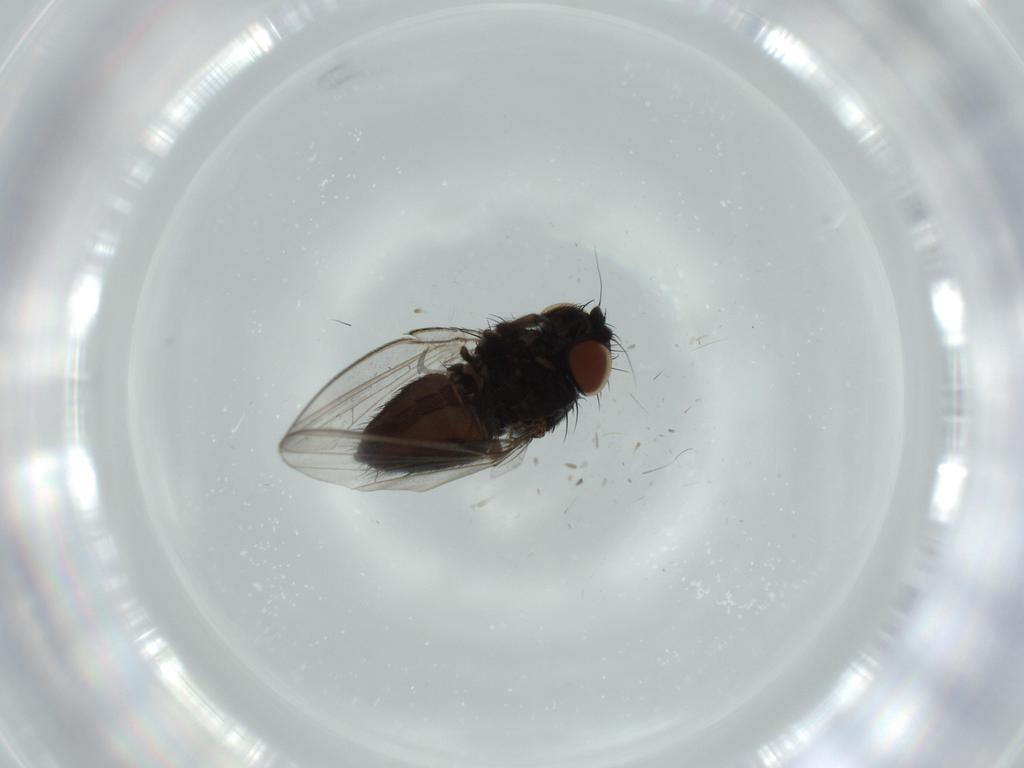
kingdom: Animalia
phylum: Arthropoda
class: Insecta
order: Diptera
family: Milichiidae
